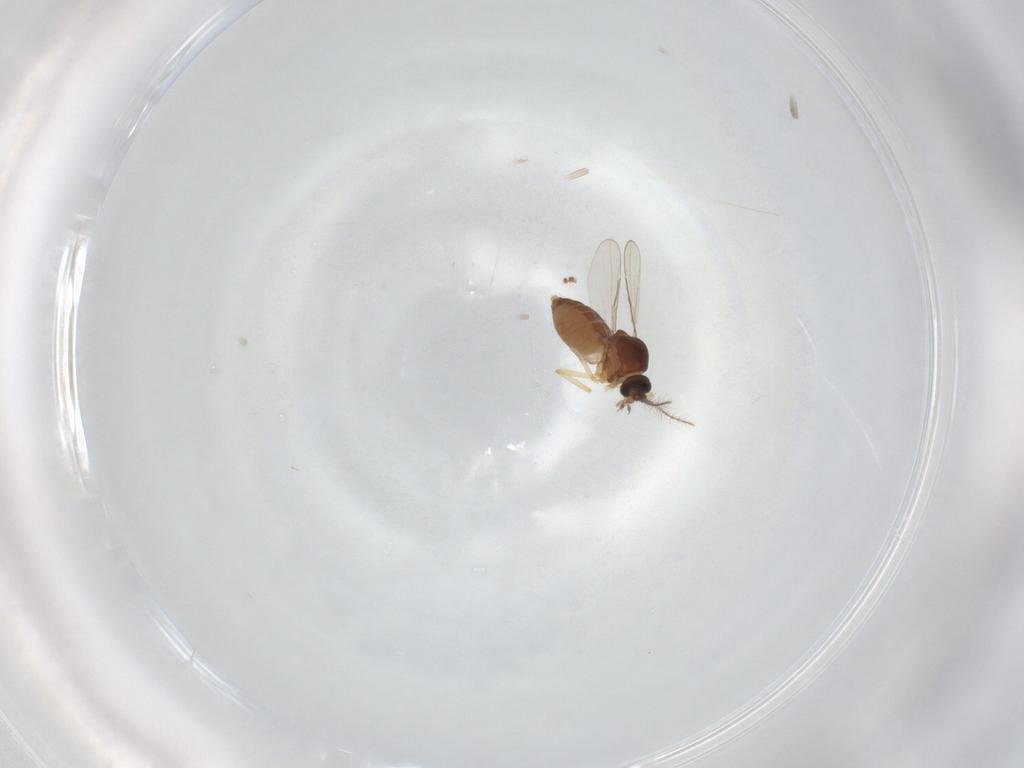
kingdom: Animalia
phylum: Arthropoda
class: Insecta
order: Diptera
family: Ceratopogonidae
